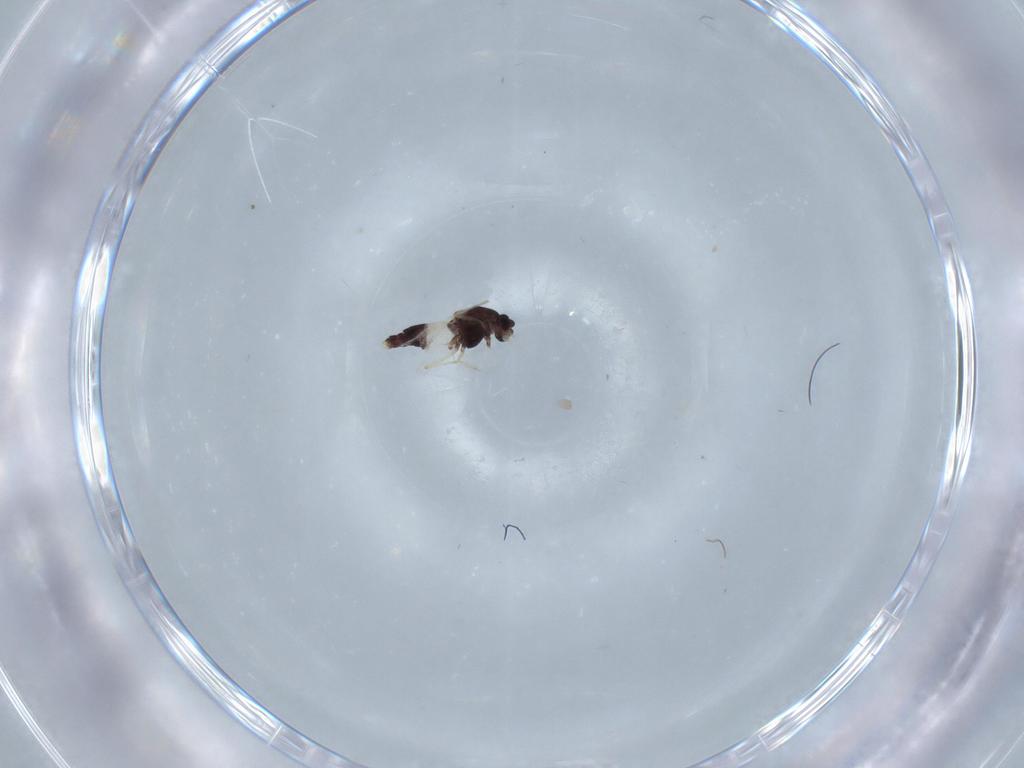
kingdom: Animalia
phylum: Arthropoda
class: Insecta
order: Diptera
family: Chironomidae
